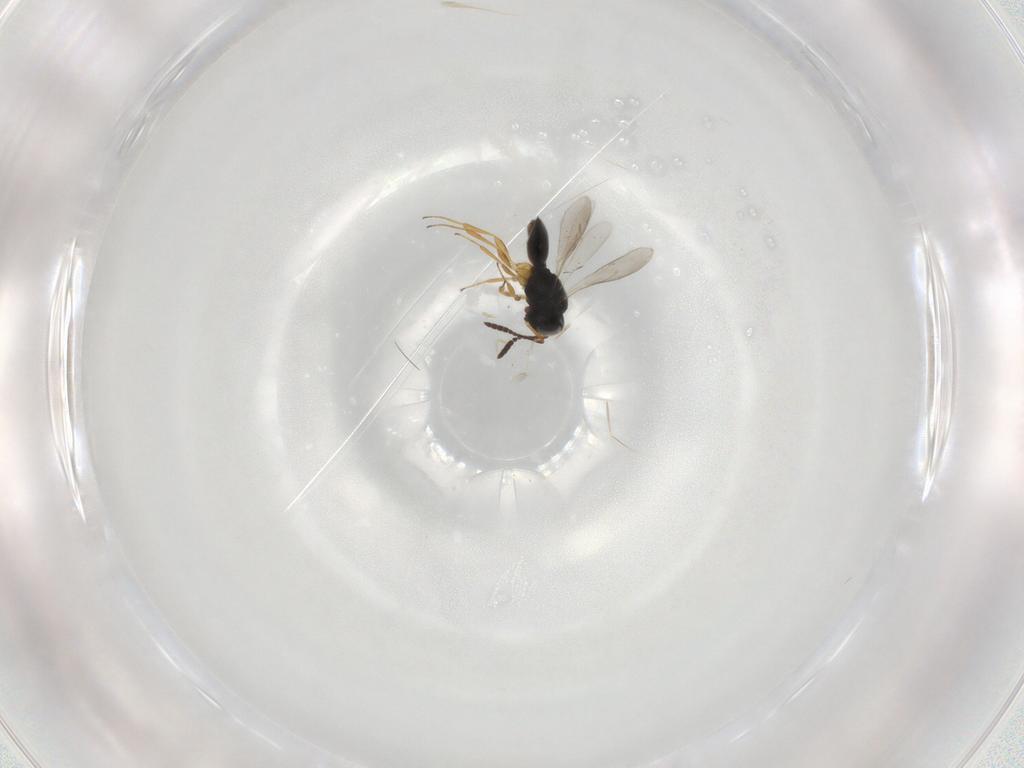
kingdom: Animalia
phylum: Arthropoda
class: Insecta
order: Hymenoptera
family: Scelionidae
